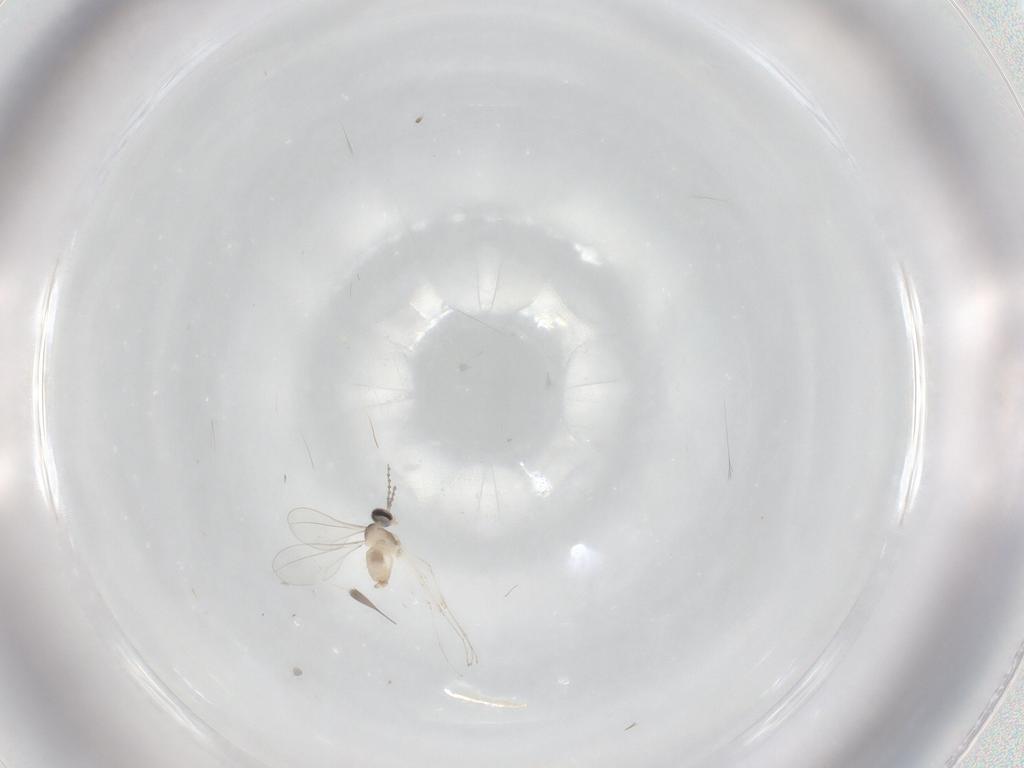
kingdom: Animalia
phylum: Arthropoda
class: Insecta
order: Diptera
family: Cecidomyiidae
